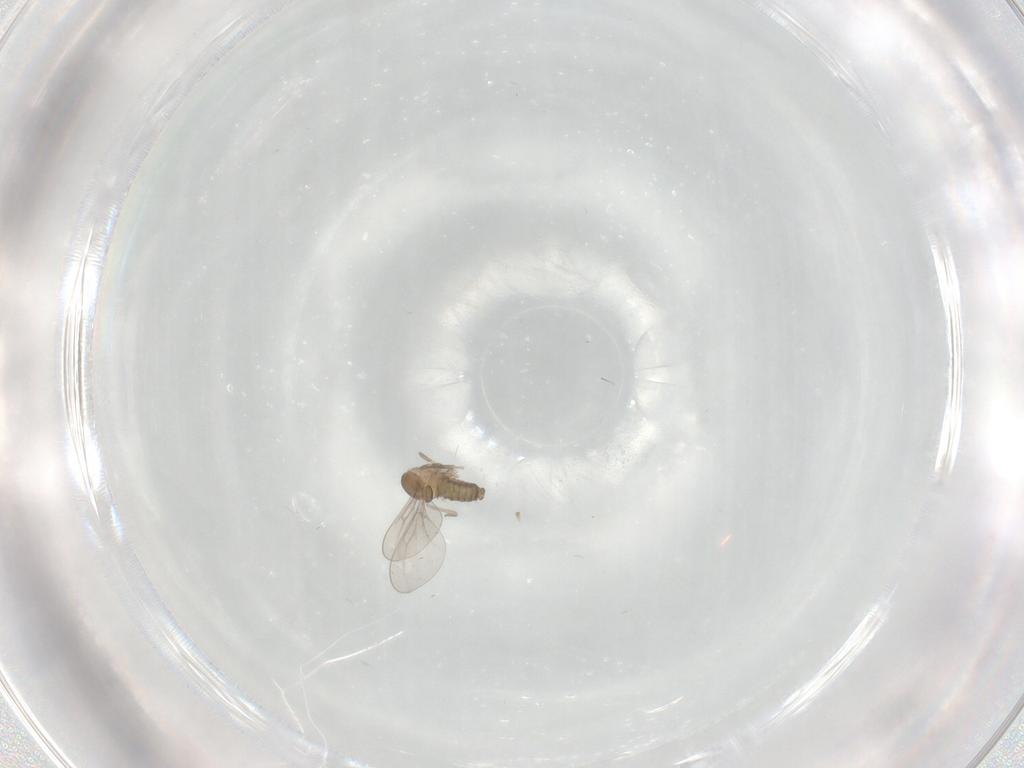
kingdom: Animalia
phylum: Arthropoda
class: Insecta
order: Diptera
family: Cecidomyiidae
